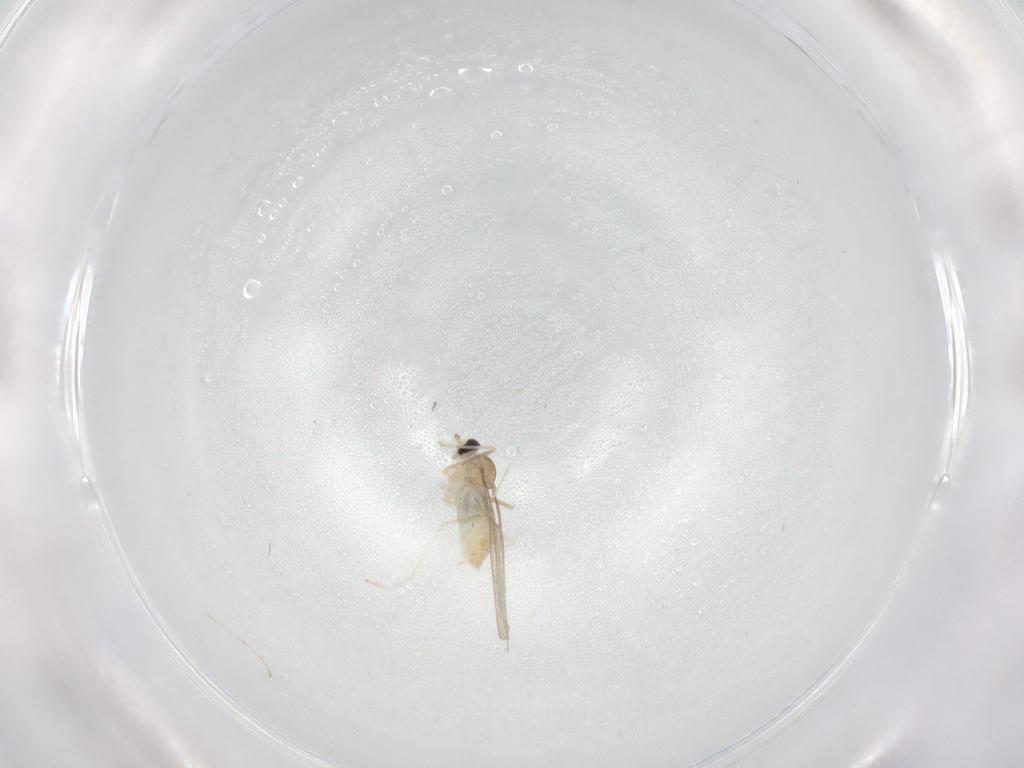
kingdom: Animalia
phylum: Arthropoda
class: Insecta
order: Diptera
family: Cecidomyiidae
